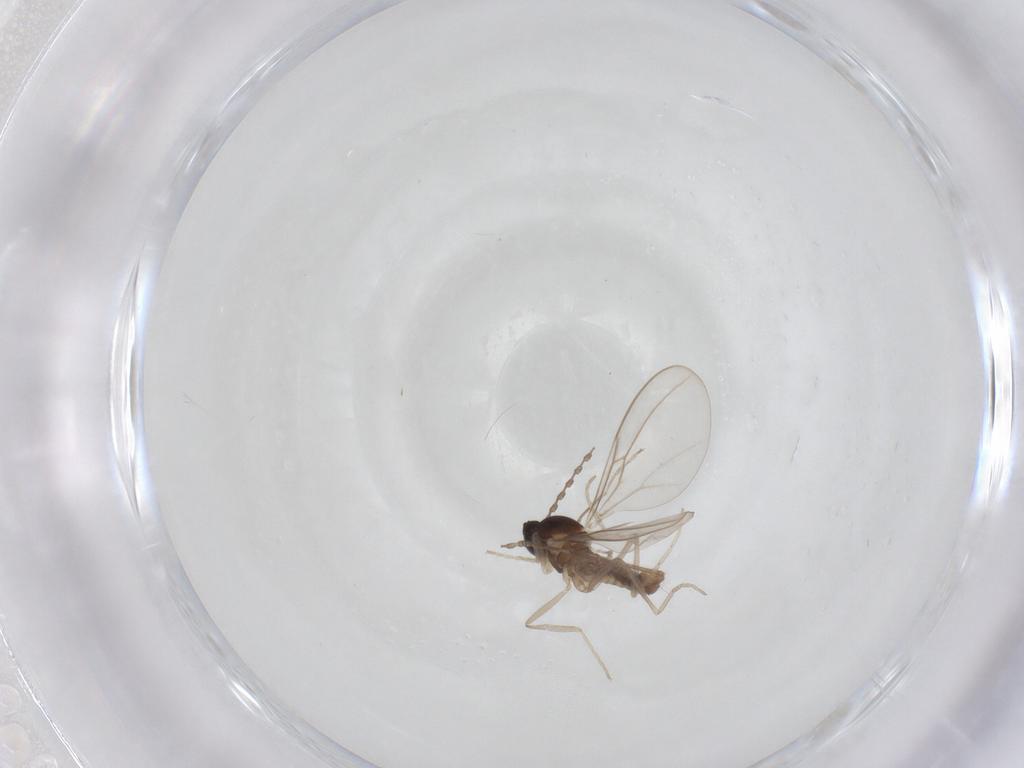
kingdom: Animalia
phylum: Arthropoda
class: Insecta
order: Diptera
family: Cecidomyiidae
